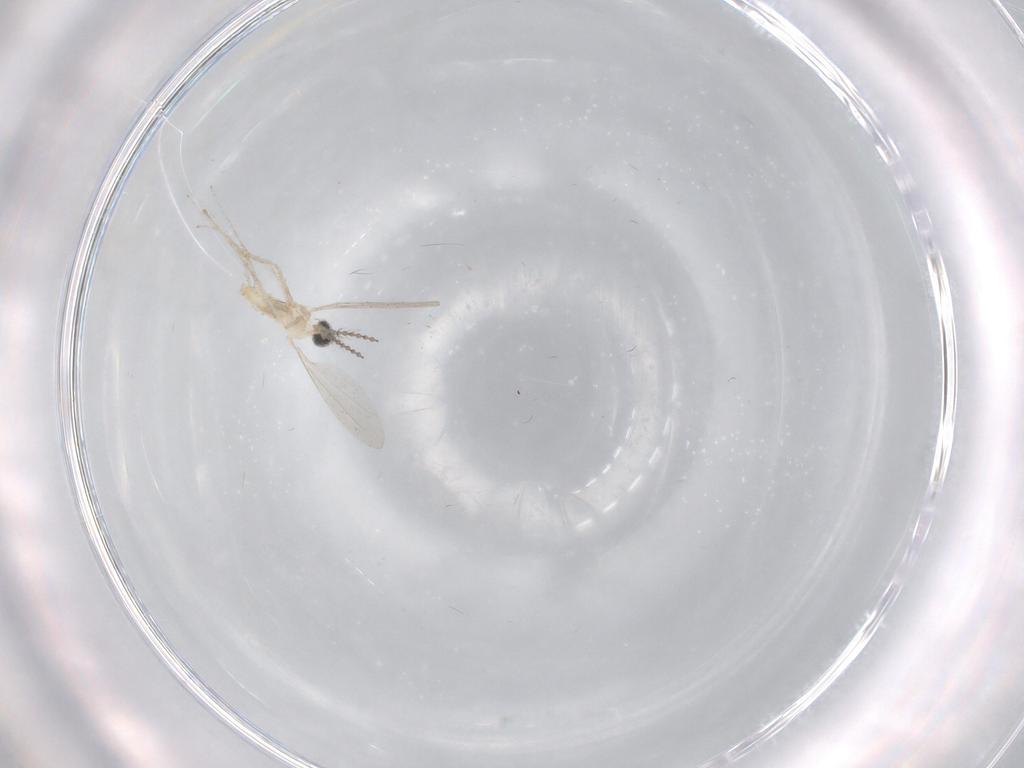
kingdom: Animalia
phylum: Arthropoda
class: Insecta
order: Diptera
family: Cecidomyiidae
